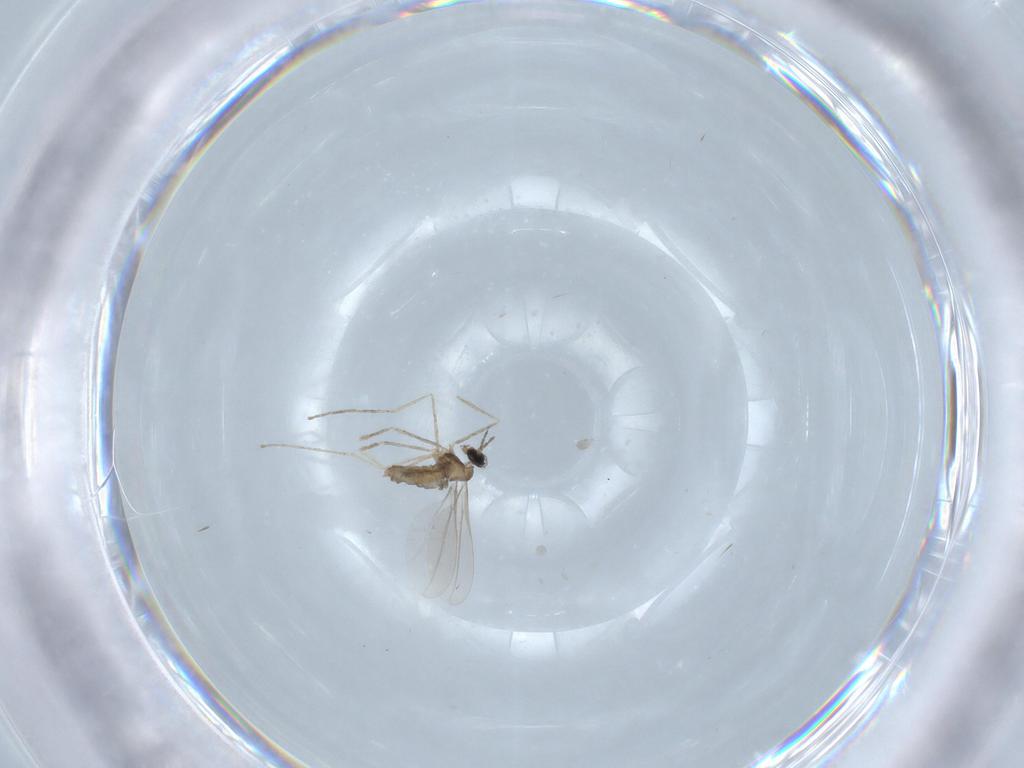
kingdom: Animalia
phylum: Arthropoda
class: Insecta
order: Diptera
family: Cecidomyiidae
